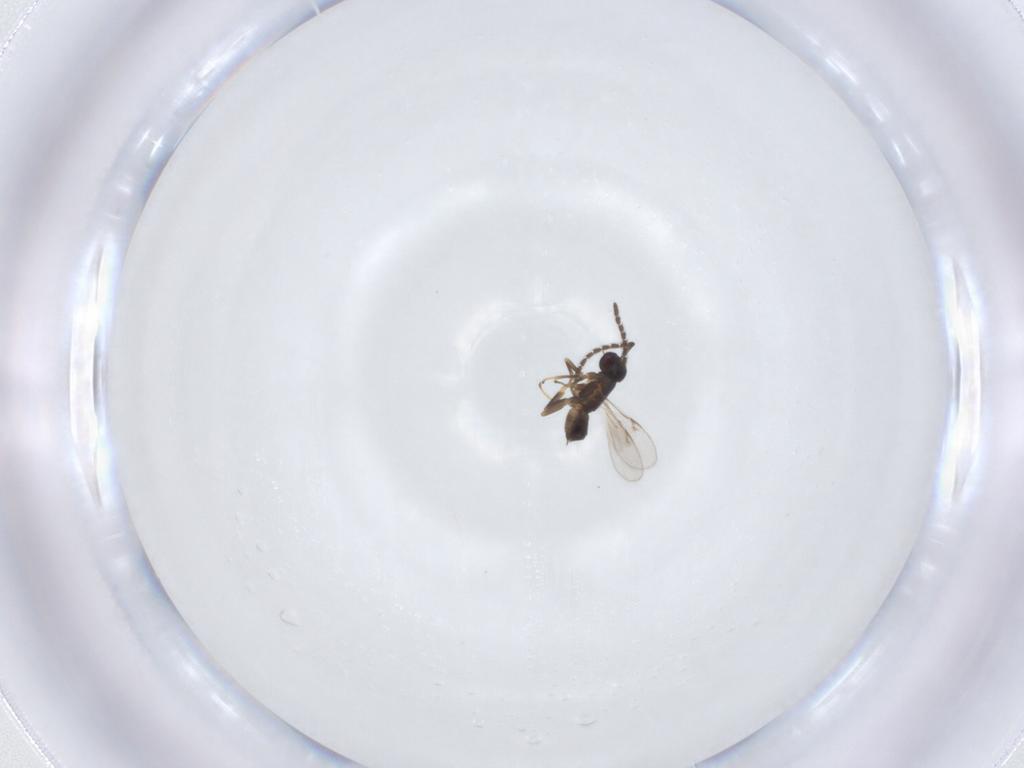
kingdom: Animalia
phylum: Arthropoda
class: Insecta
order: Hymenoptera
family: Encyrtidae
